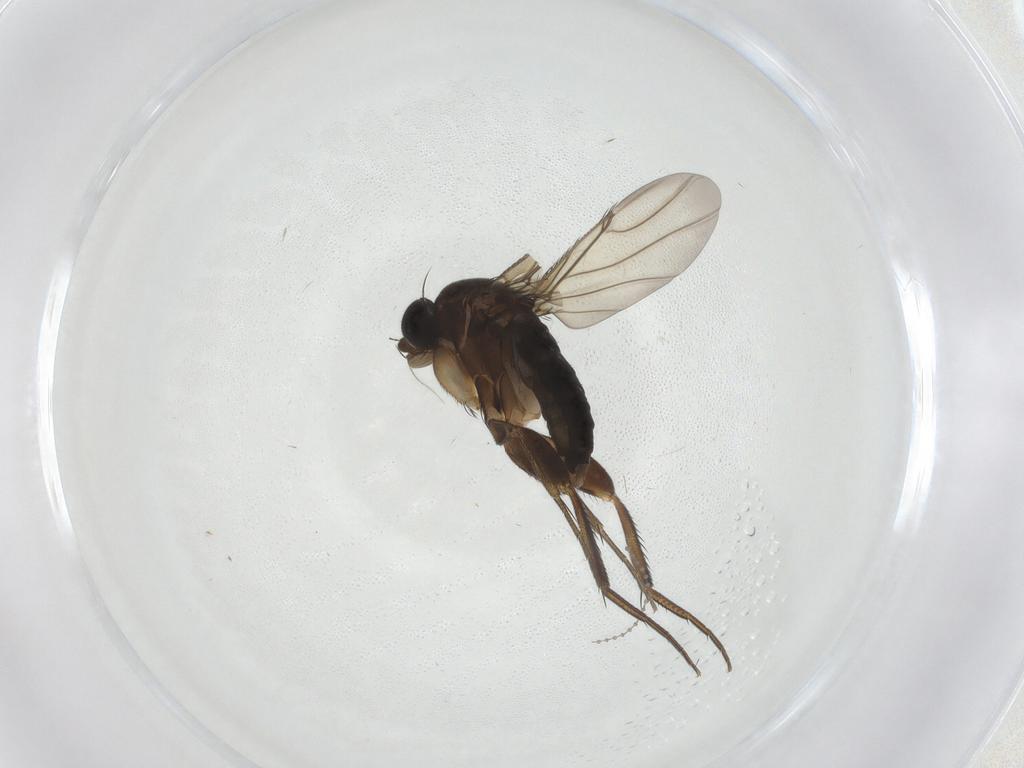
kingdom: Animalia
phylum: Arthropoda
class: Insecta
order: Diptera
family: Phoridae
